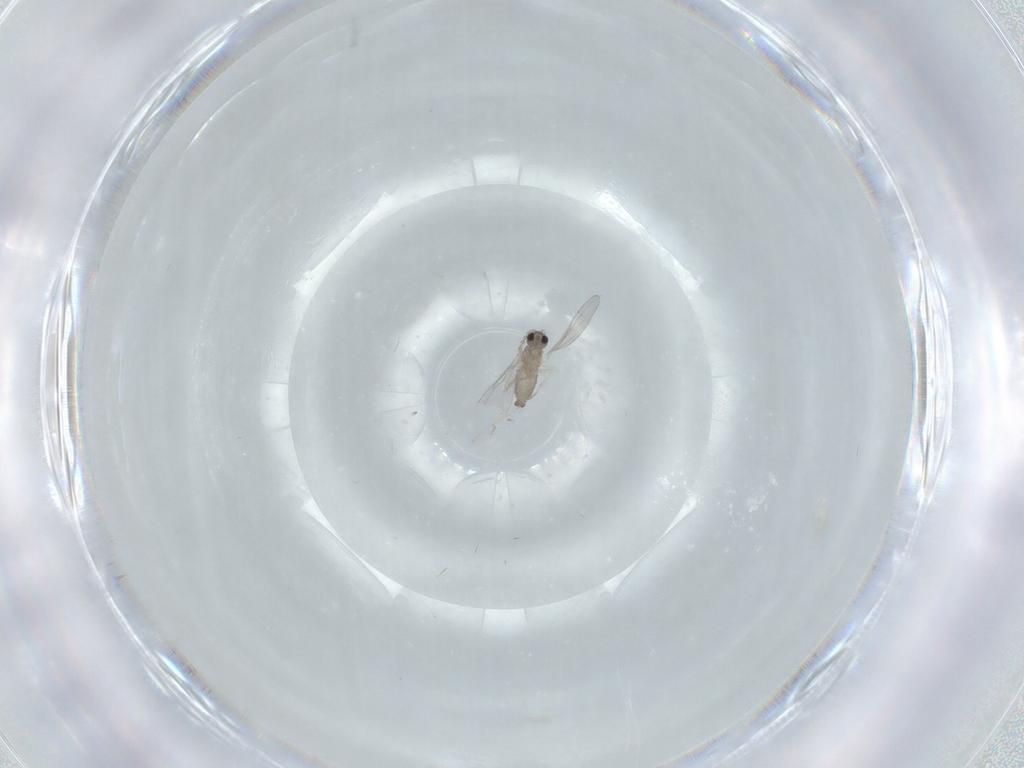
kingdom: Animalia
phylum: Arthropoda
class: Insecta
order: Diptera
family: Cecidomyiidae
